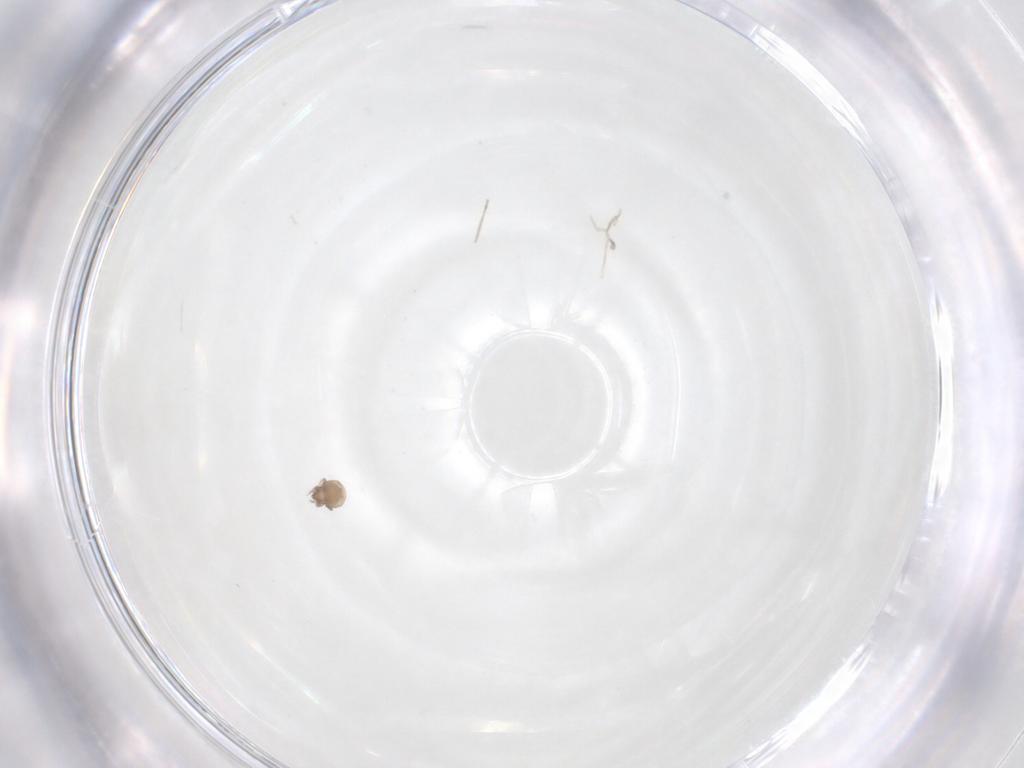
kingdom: Animalia
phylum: Arthropoda
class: Arachnida
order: Sarcoptiformes
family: Galumnidae
